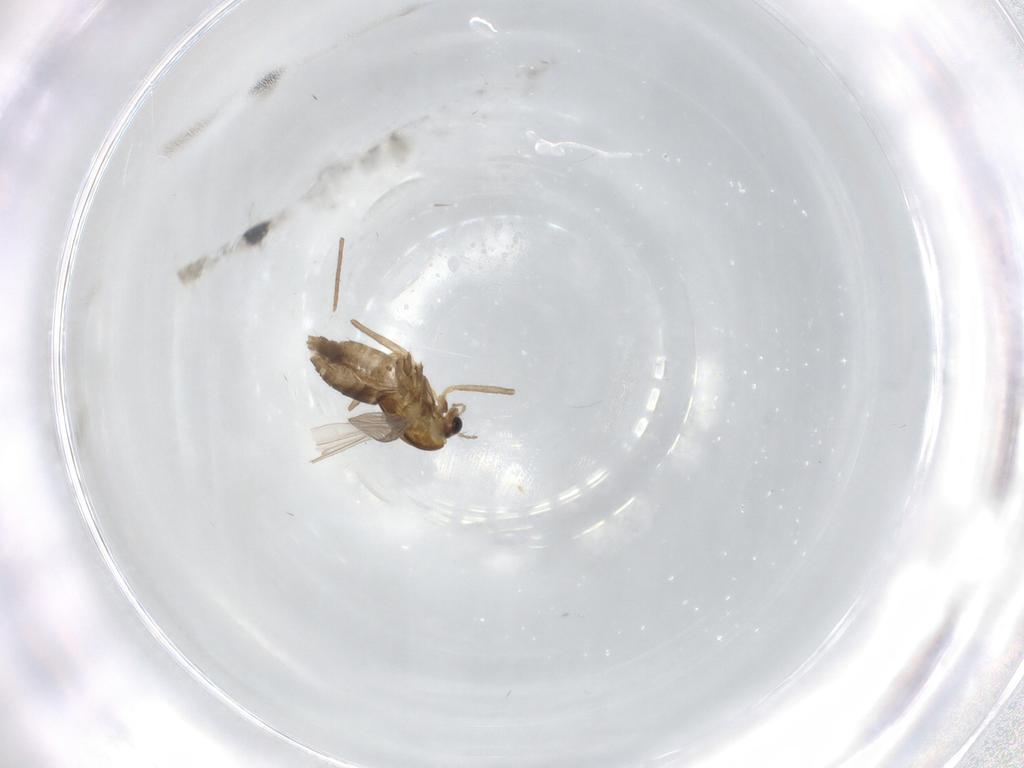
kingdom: Animalia
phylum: Arthropoda
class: Insecta
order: Diptera
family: Chironomidae
